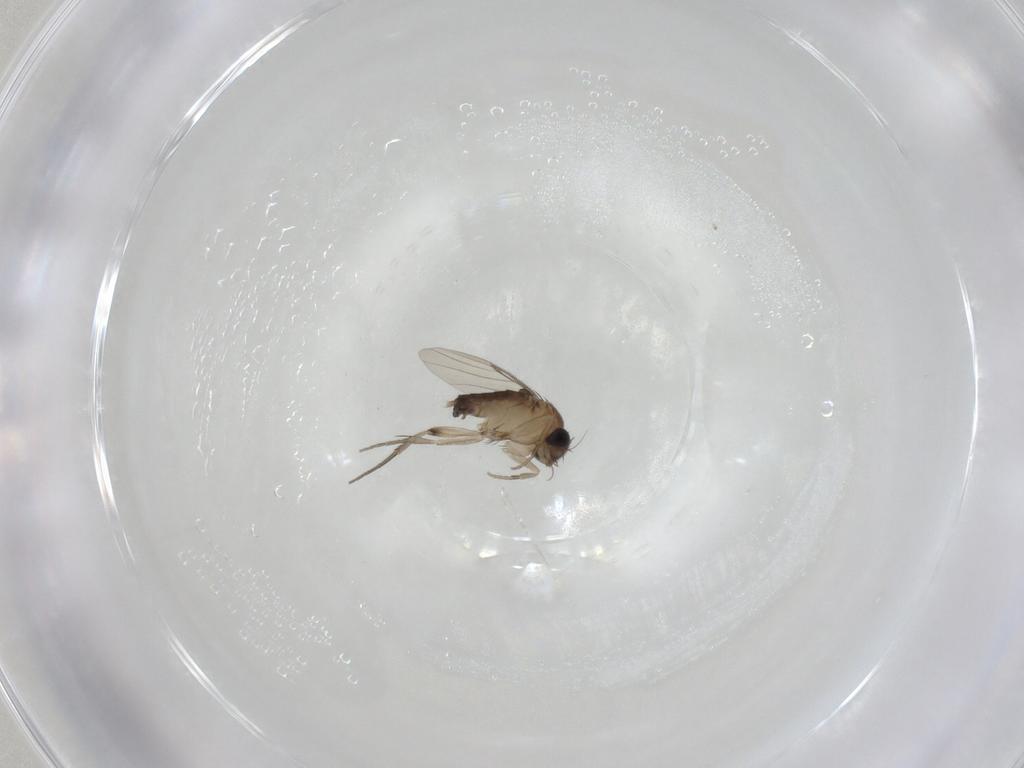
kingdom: Animalia
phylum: Arthropoda
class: Insecta
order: Diptera
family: Phoridae
